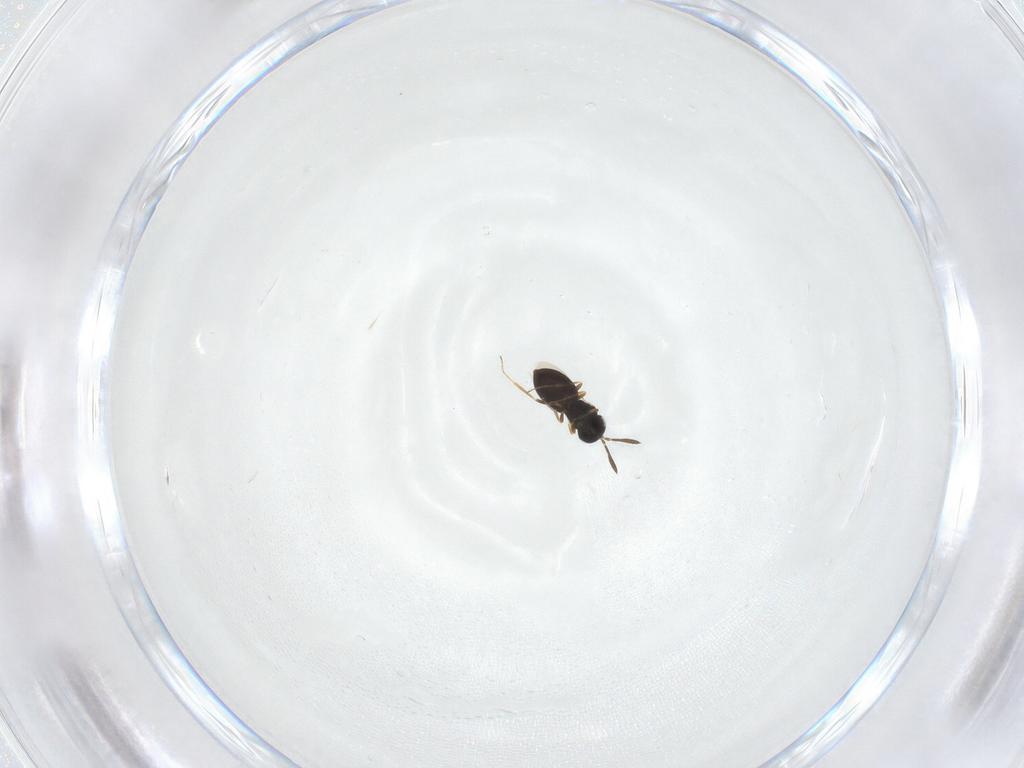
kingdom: Animalia
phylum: Arthropoda
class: Insecta
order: Hymenoptera
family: Scelionidae
